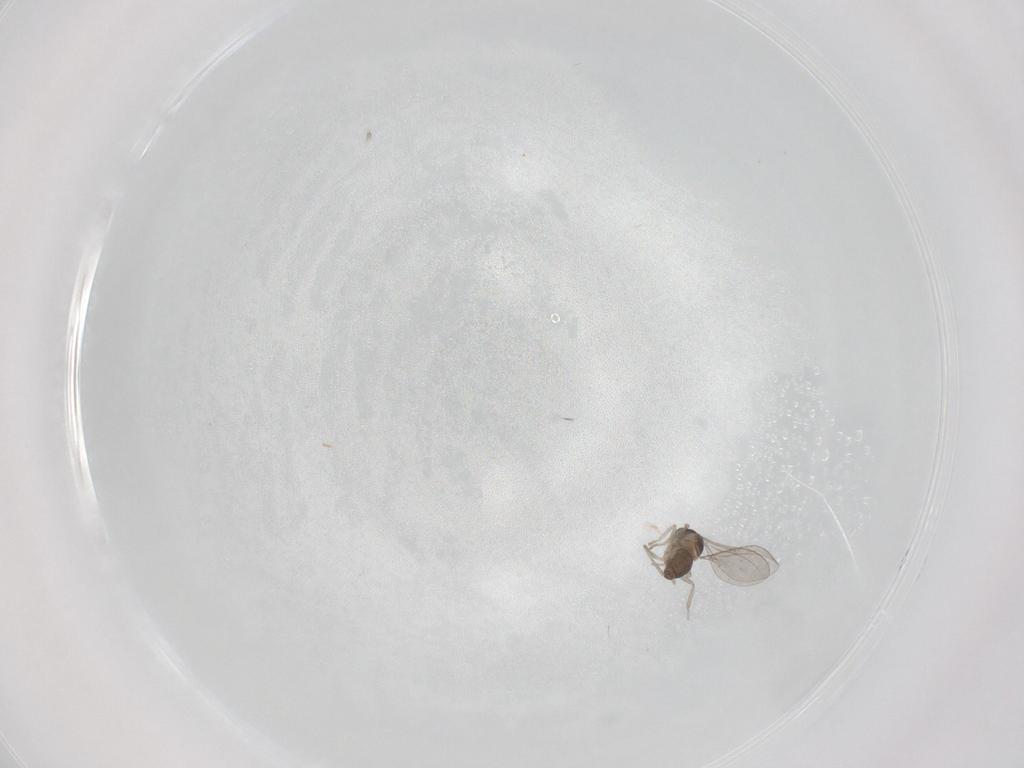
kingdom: Animalia
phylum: Arthropoda
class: Insecta
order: Diptera
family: Cecidomyiidae
